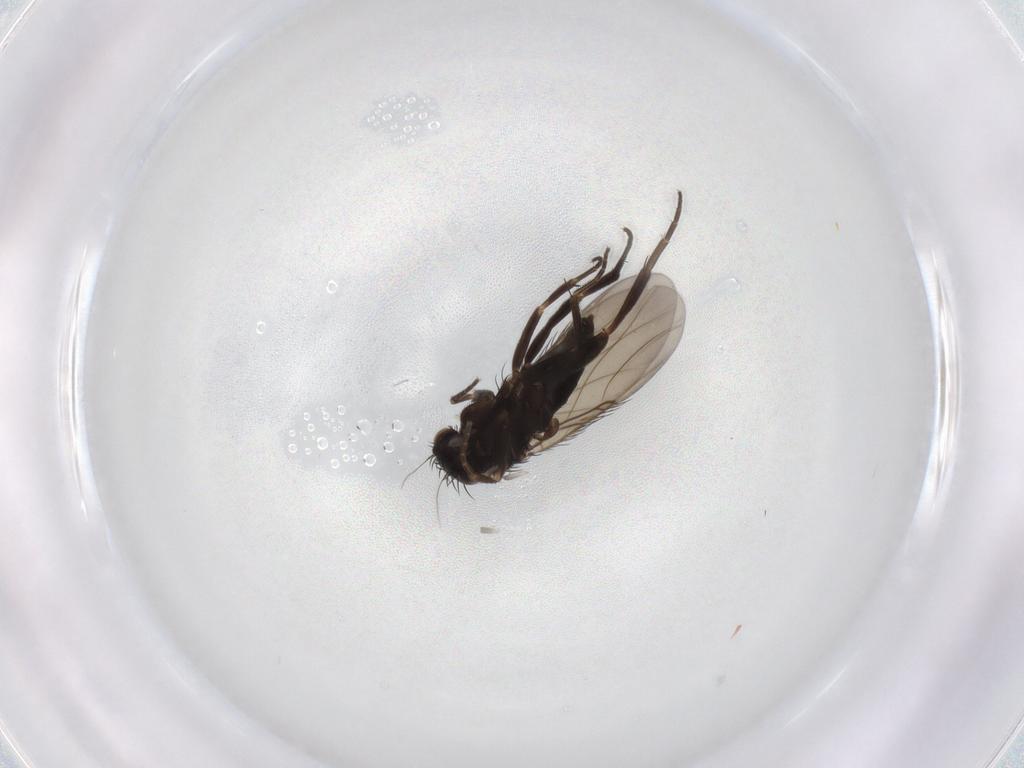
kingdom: Animalia
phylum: Arthropoda
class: Insecta
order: Diptera
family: Phoridae
